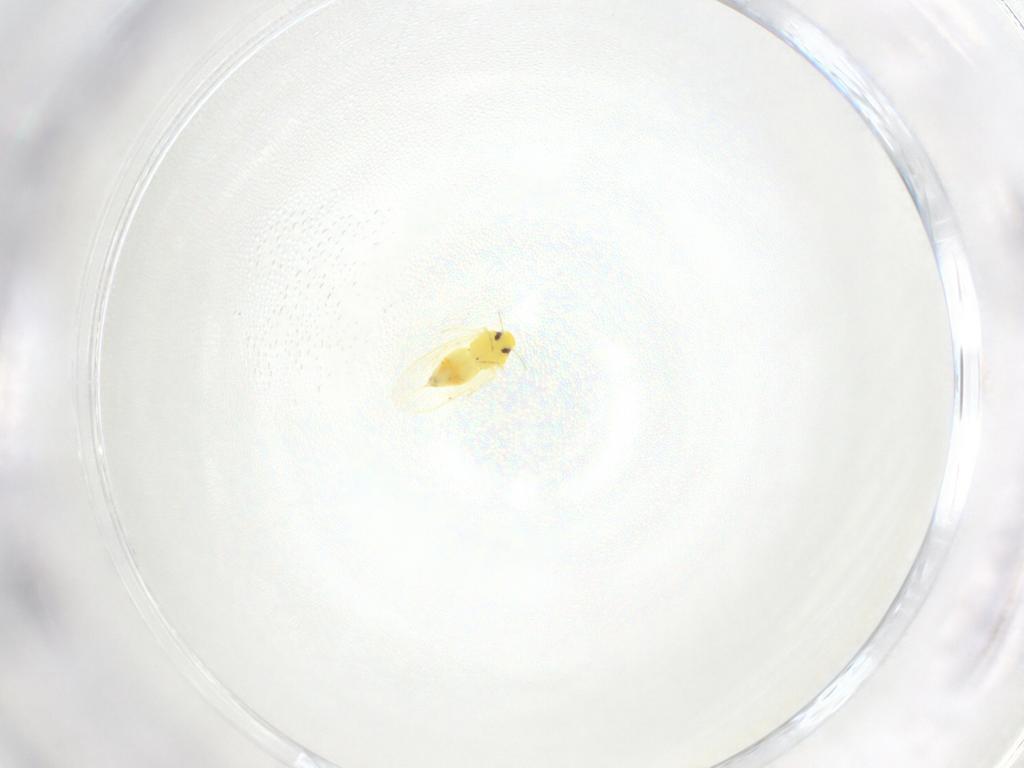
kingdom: Animalia
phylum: Arthropoda
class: Insecta
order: Hemiptera
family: Aleyrodidae
